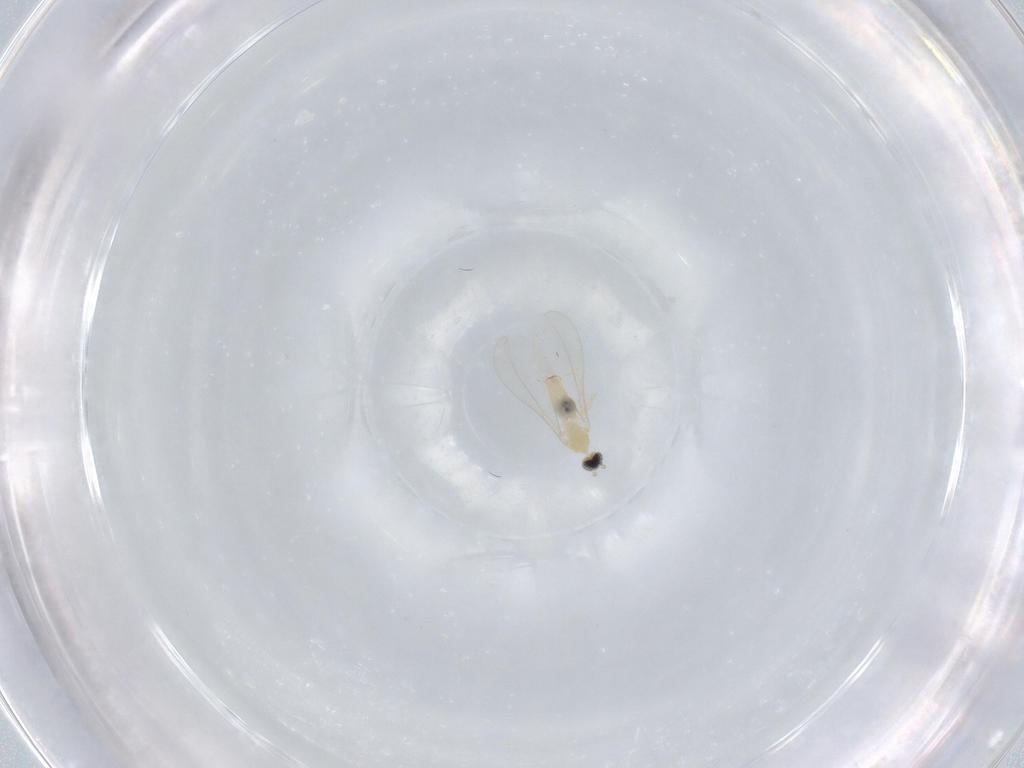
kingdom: Animalia
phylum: Arthropoda
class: Insecta
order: Diptera
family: Cecidomyiidae
